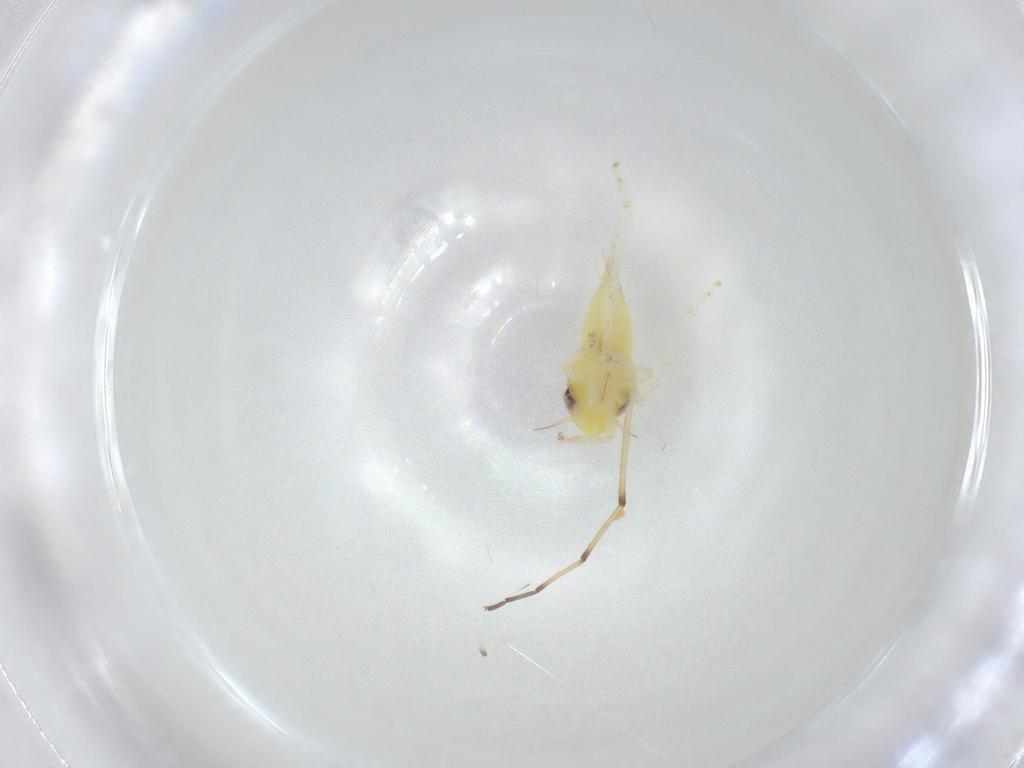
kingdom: Animalia
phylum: Arthropoda
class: Insecta
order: Hemiptera
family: Cicadellidae
